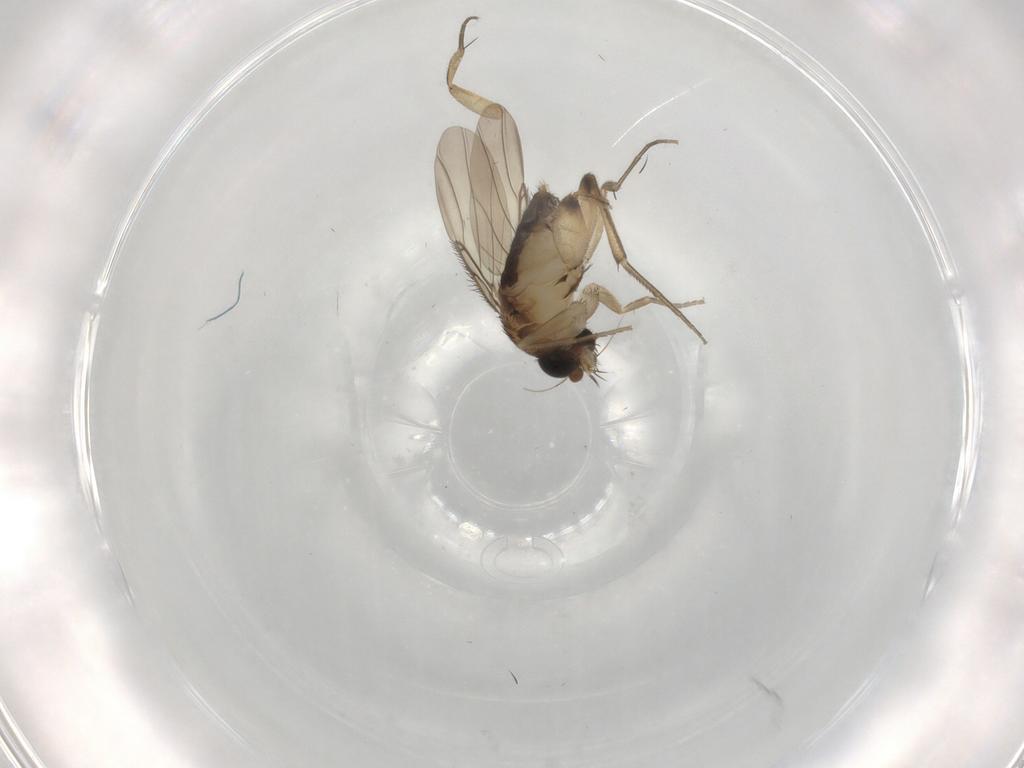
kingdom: Animalia
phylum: Arthropoda
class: Insecta
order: Diptera
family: Phoridae
